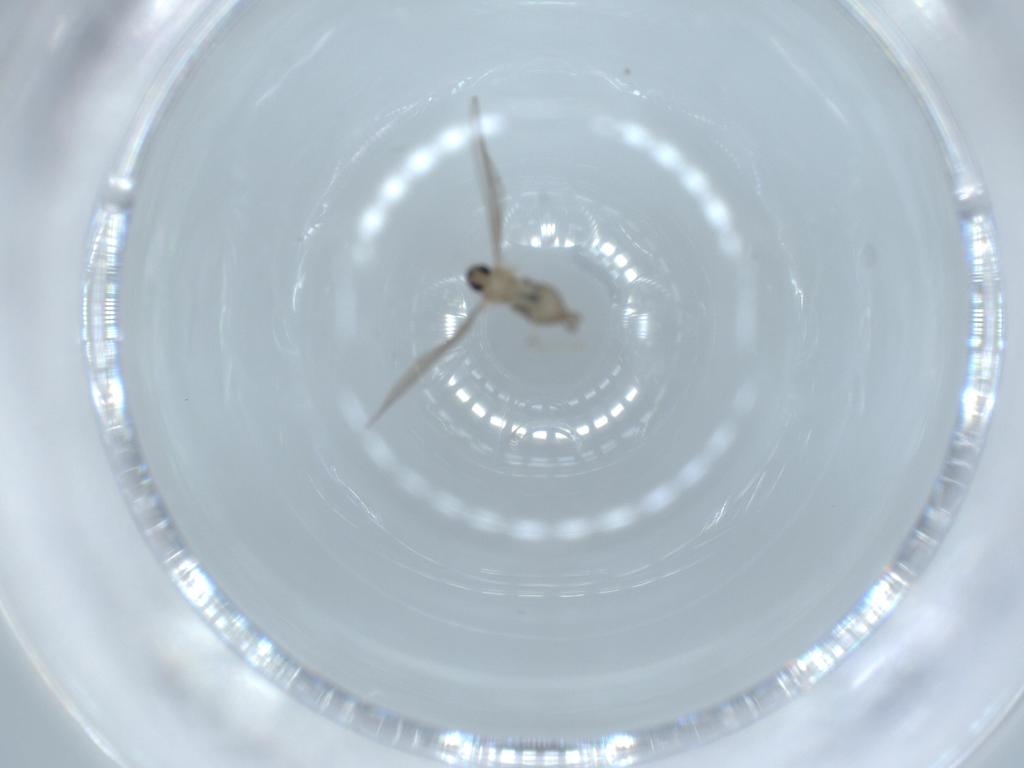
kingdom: Animalia
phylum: Arthropoda
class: Insecta
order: Diptera
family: Cecidomyiidae
